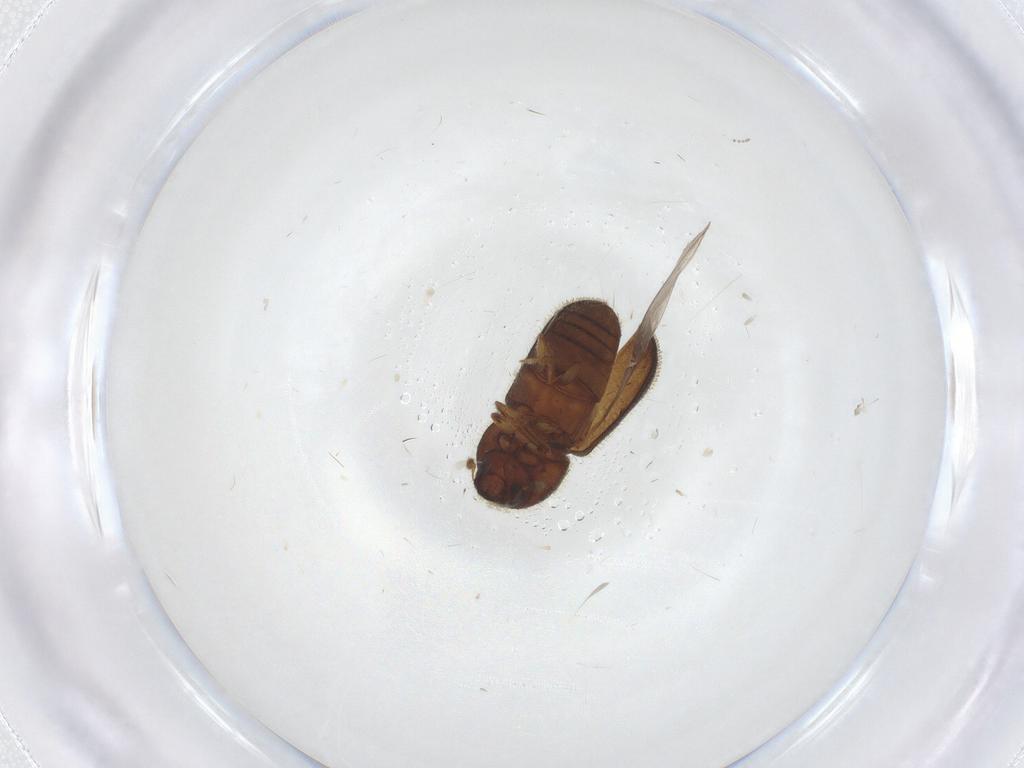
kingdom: Animalia
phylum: Arthropoda
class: Insecta
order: Coleoptera
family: Curculionidae
